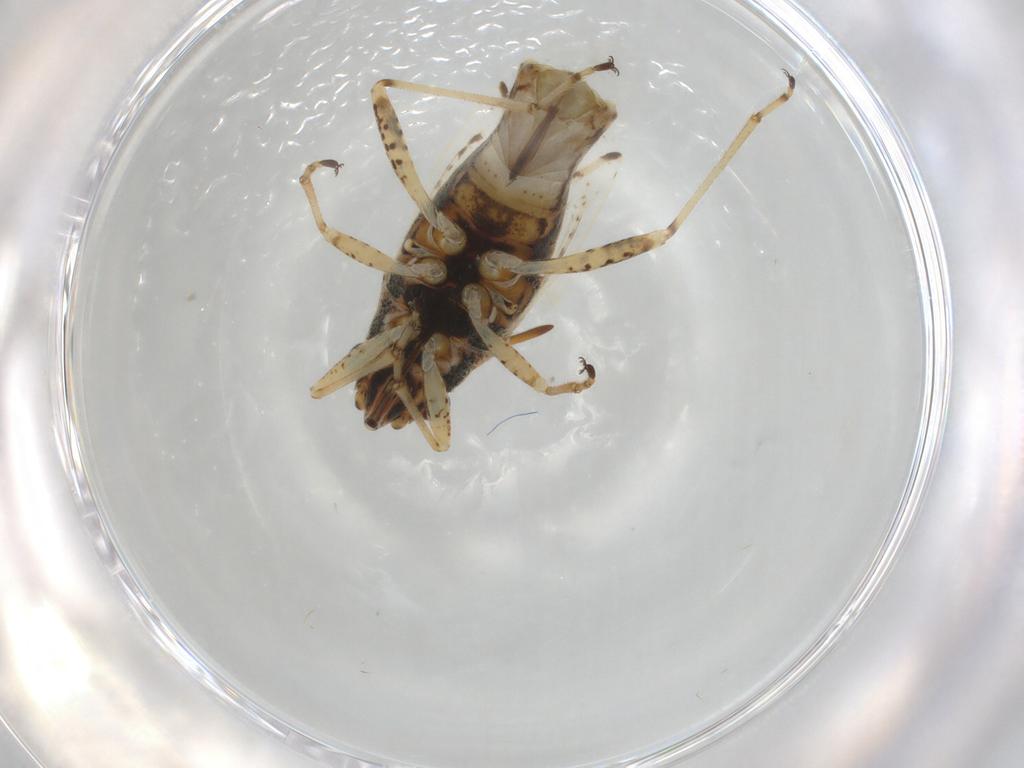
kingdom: Animalia
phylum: Arthropoda
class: Insecta
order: Hemiptera
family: Lygaeidae
